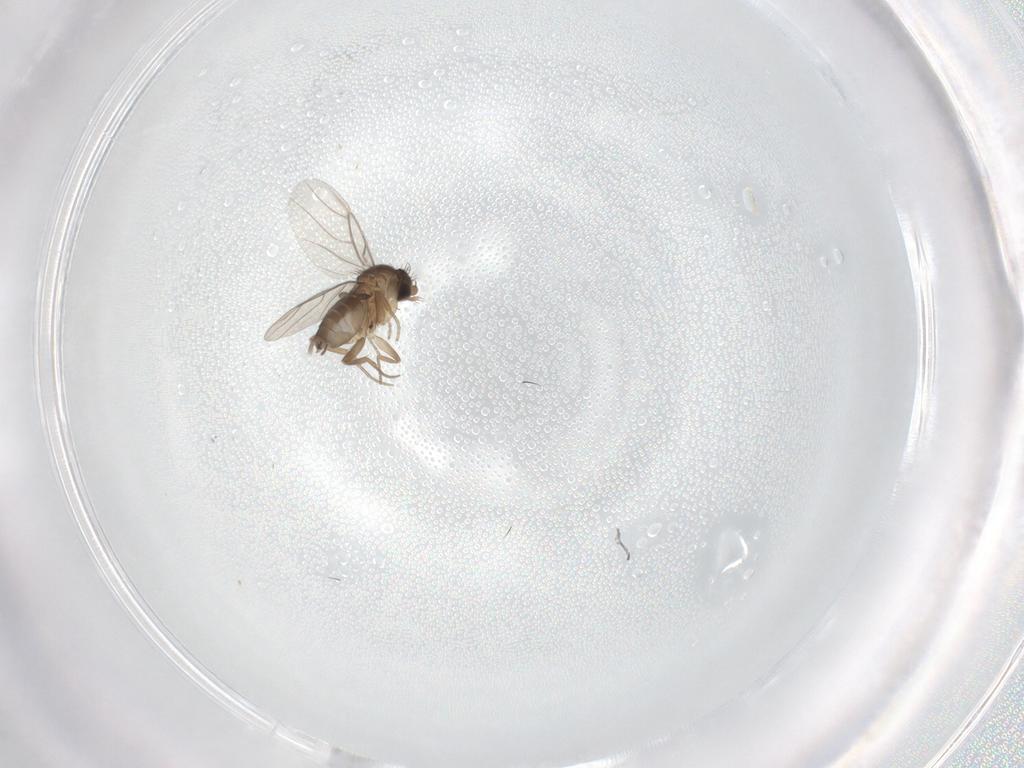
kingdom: Animalia
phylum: Arthropoda
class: Insecta
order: Diptera
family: Phoridae
